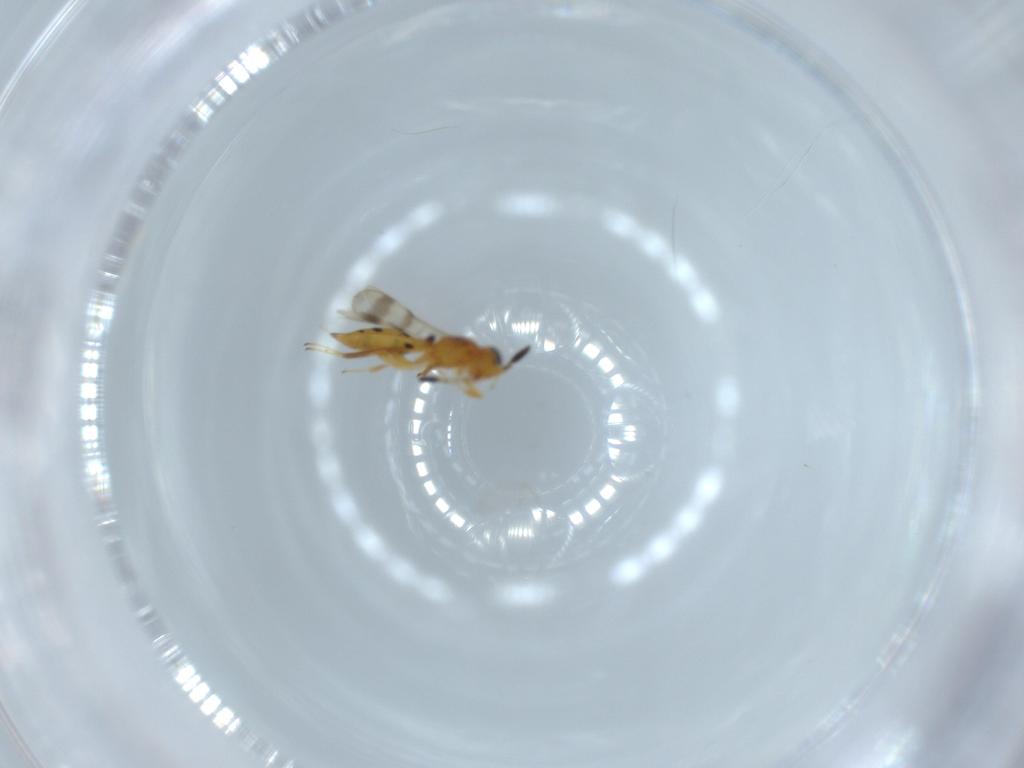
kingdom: Animalia
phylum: Arthropoda
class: Insecta
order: Hymenoptera
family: Scelionidae
